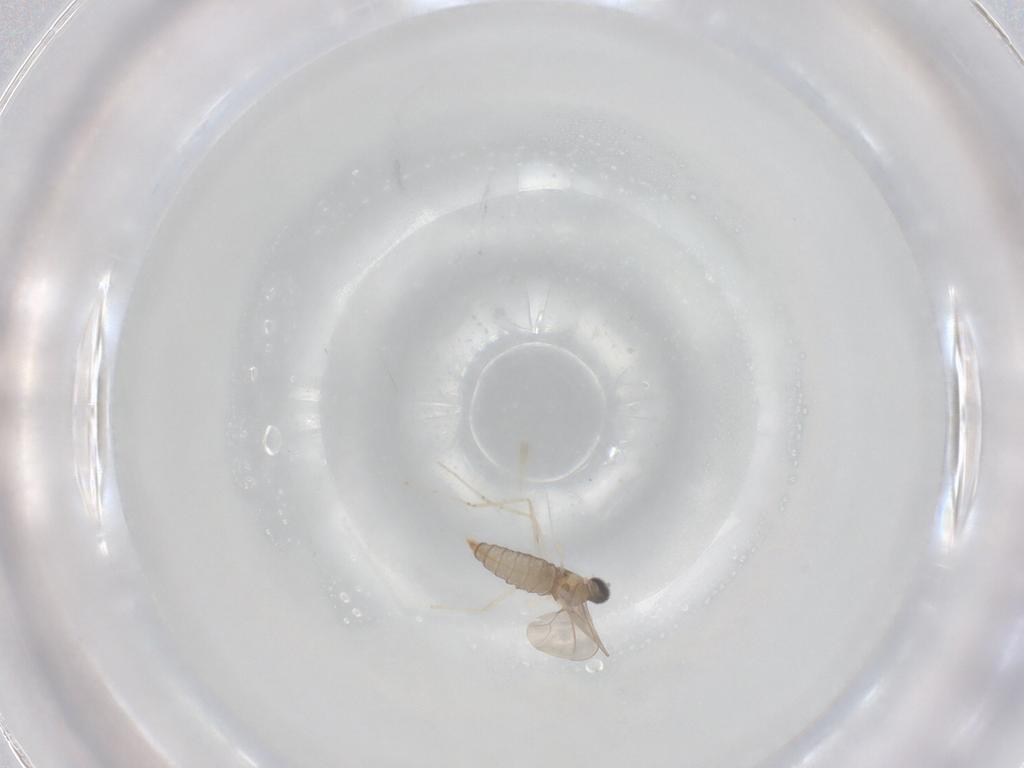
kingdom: Animalia
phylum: Arthropoda
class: Insecta
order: Diptera
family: Cecidomyiidae
